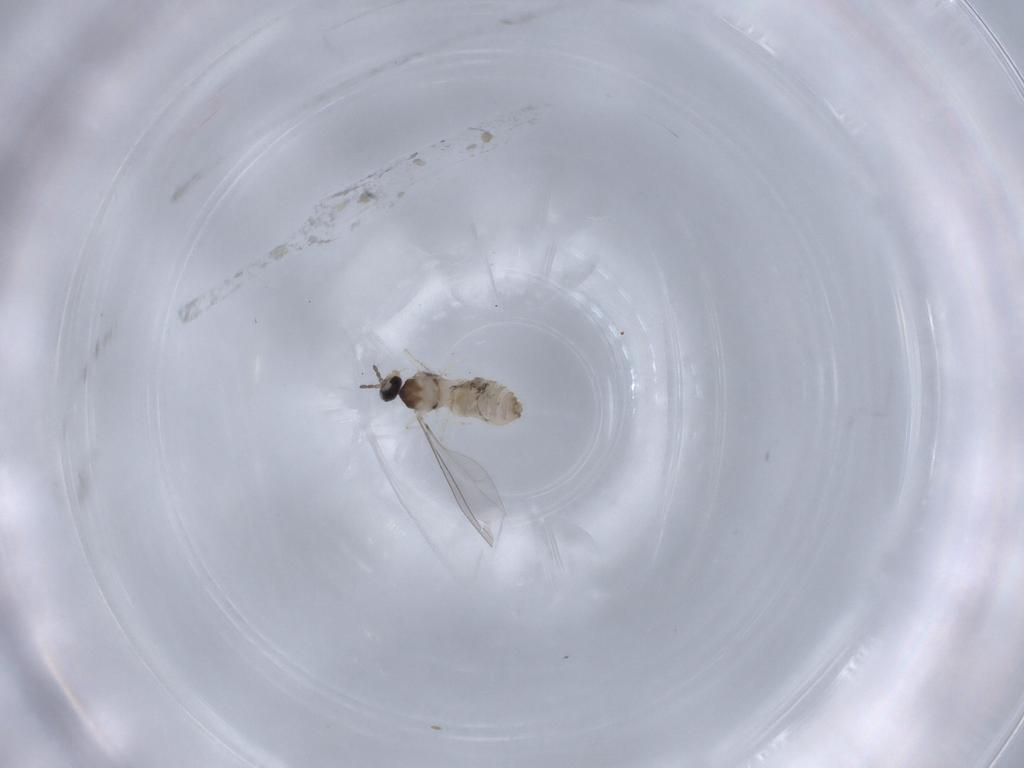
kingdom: Animalia
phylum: Arthropoda
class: Insecta
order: Diptera
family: Cecidomyiidae
